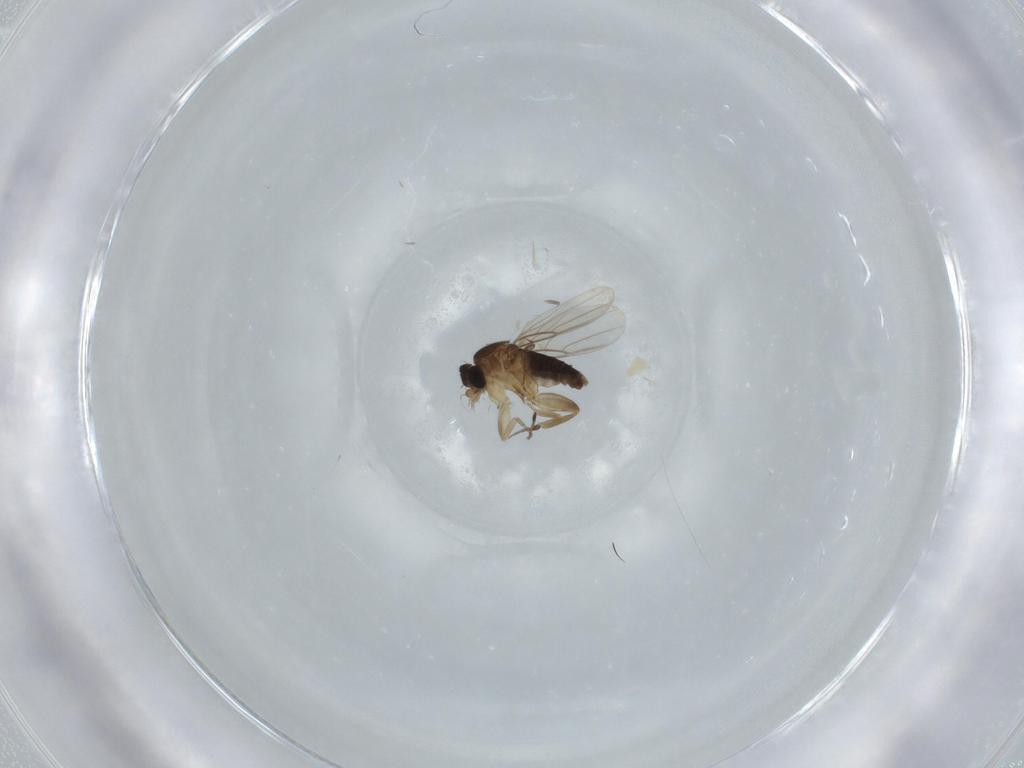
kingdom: Animalia
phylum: Arthropoda
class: Insecta
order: Diptera
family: Phoridae
